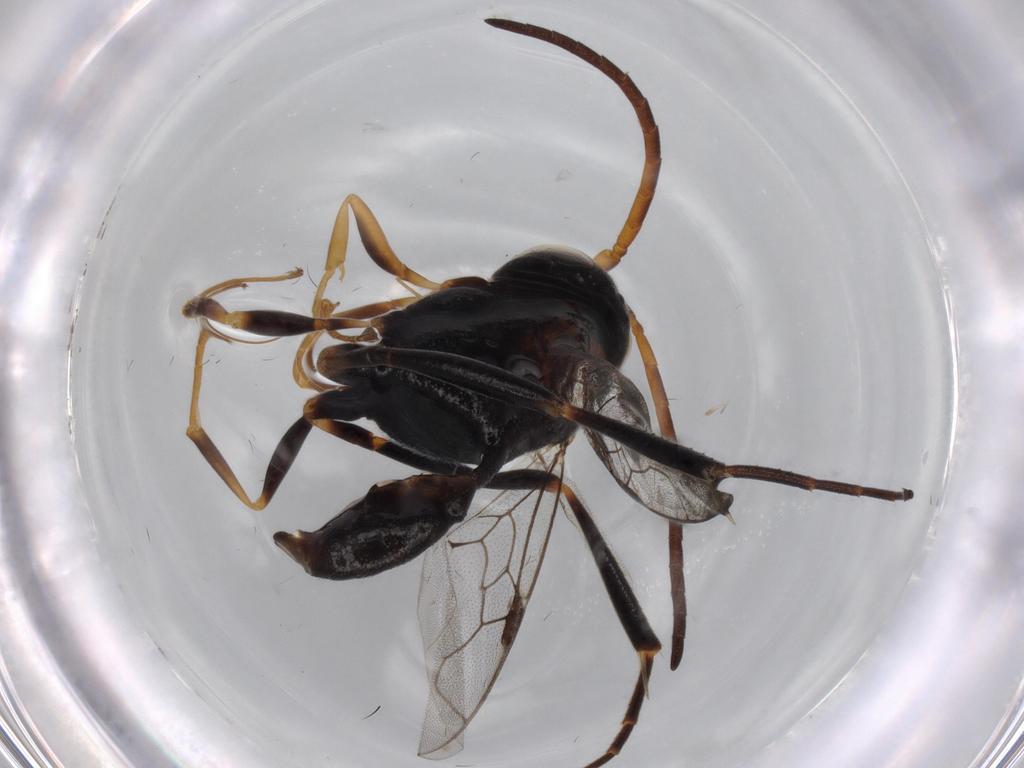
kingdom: Animalia
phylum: Arthropoda
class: Insecta
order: Hymenoptera
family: Evaniidae
